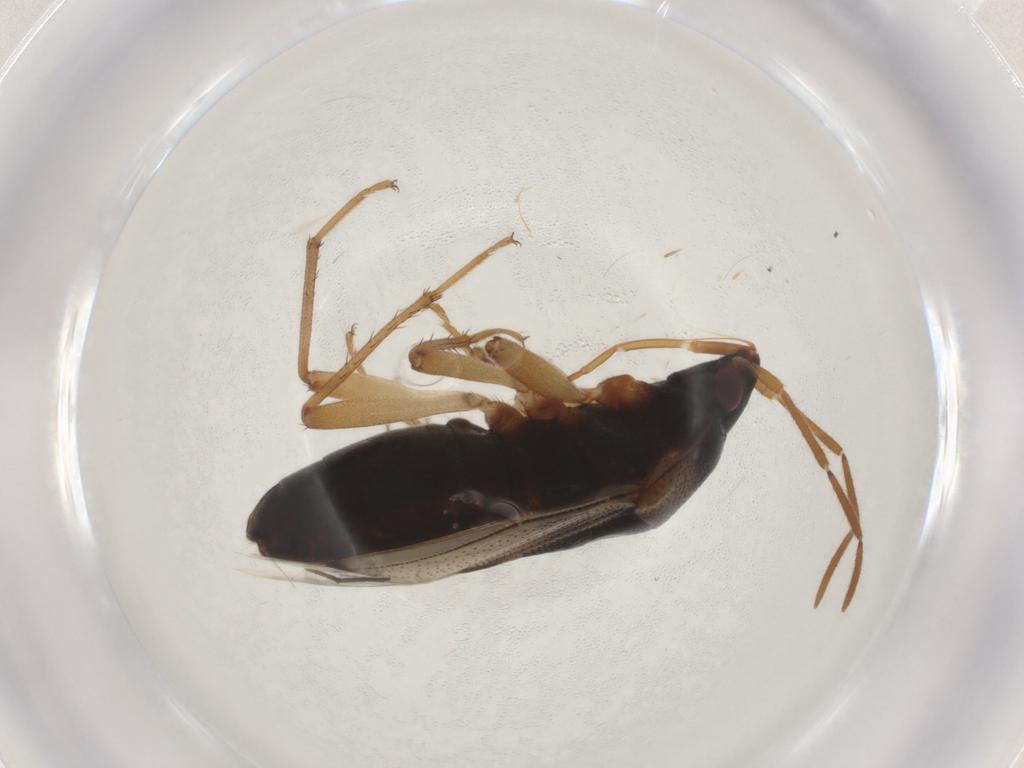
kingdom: Animalia
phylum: Arthropoda
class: Insecta
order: Hemiptera
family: Rhyparochromidae
